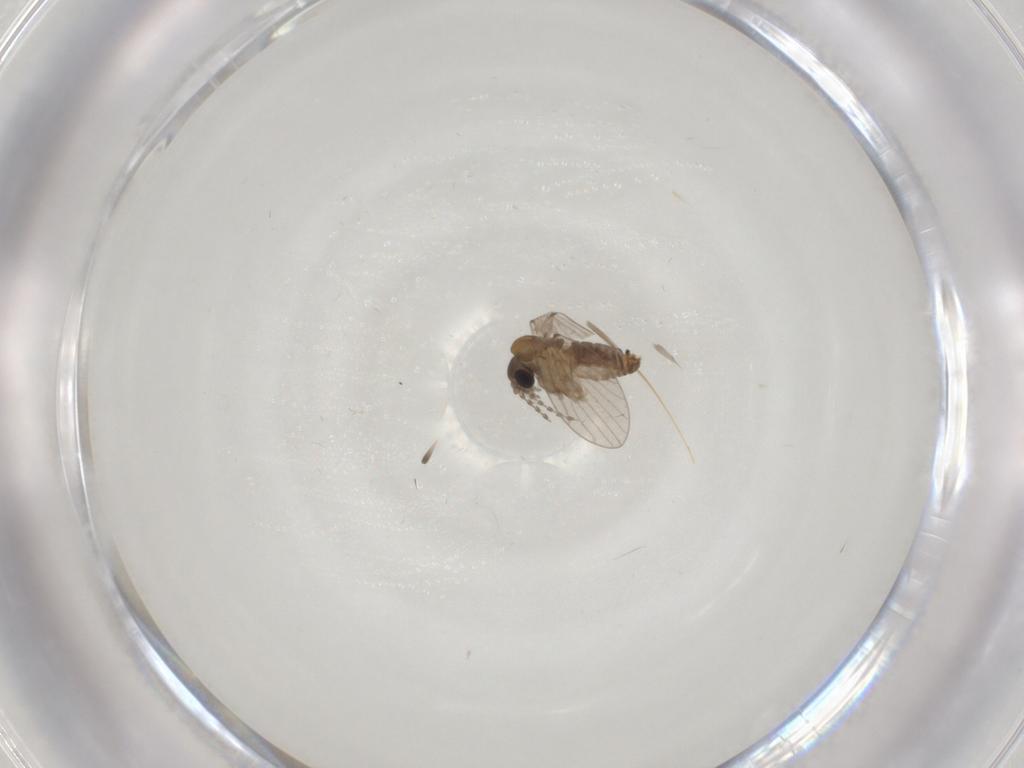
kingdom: Animalia
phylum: Arthropoda
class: Insecta
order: Diptera
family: Psychodidae
